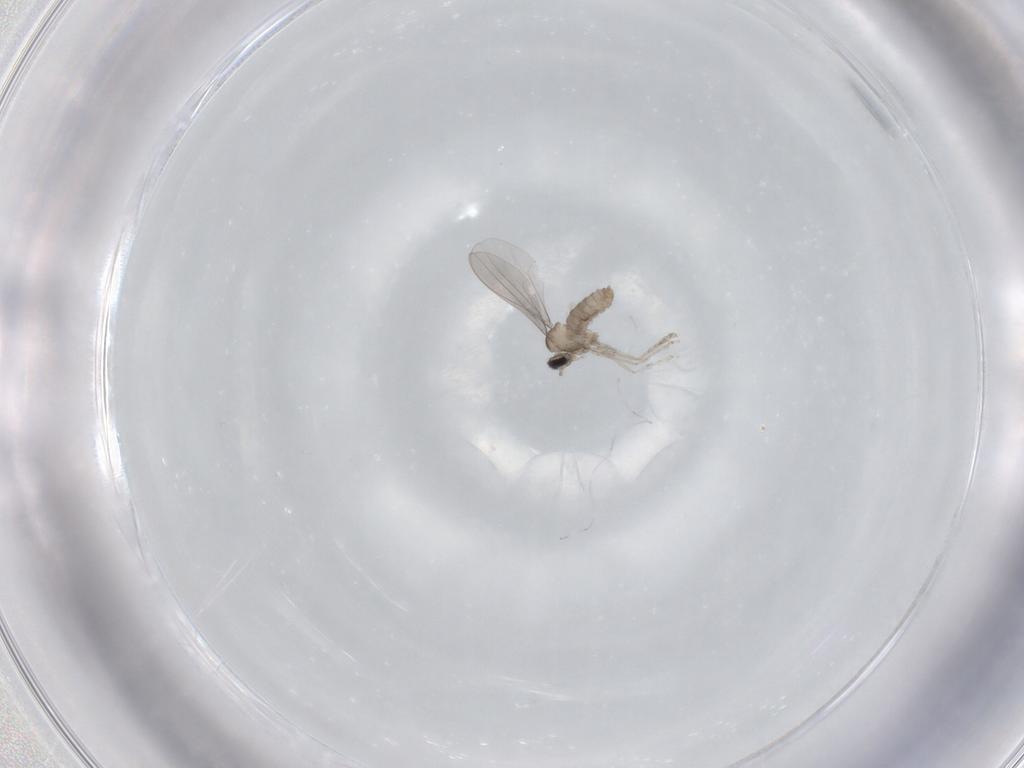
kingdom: Animalia
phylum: Arthropoda
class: Insecta
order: Diptera
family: Cecidomyiidae
